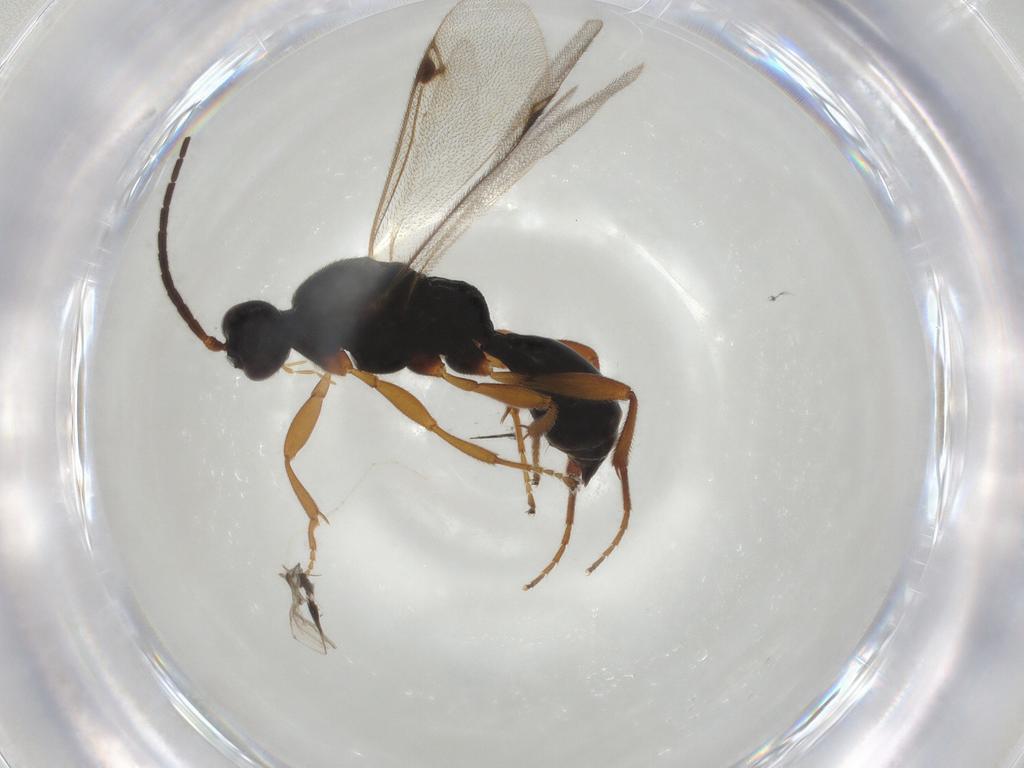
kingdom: Animalia
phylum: Arthropoda
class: Insecta
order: Hymenoptera
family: Proctotrupidae
